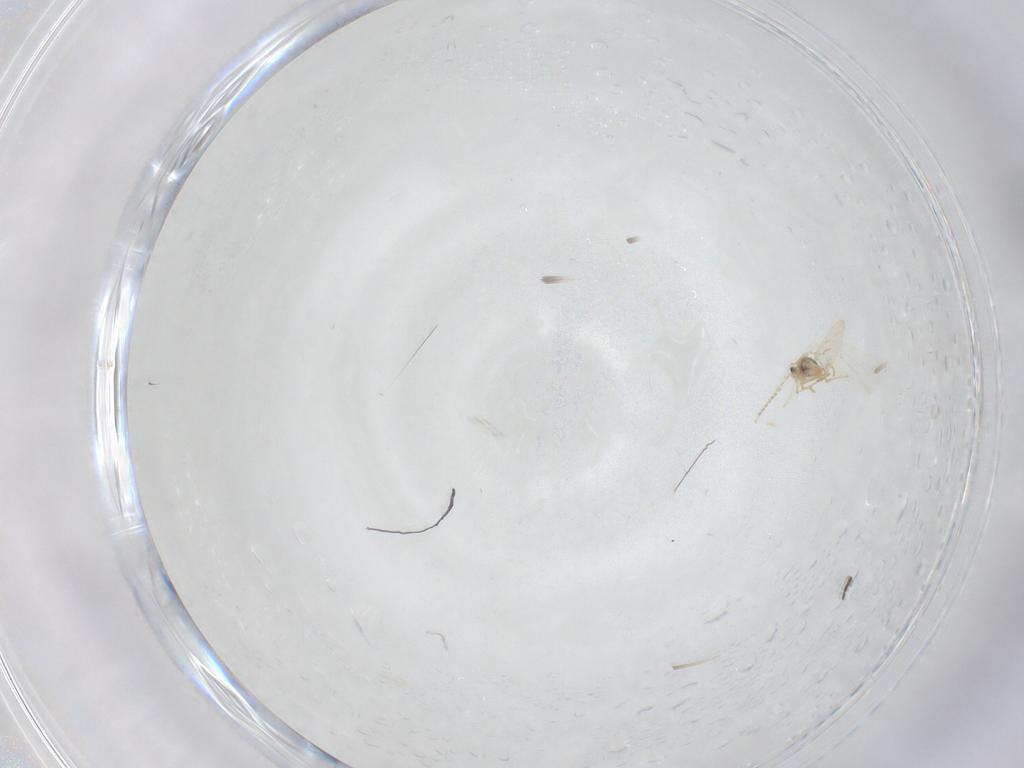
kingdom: Animalia
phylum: Arthropoda
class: Insecta
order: Diptera
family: Cecidomyiidae
